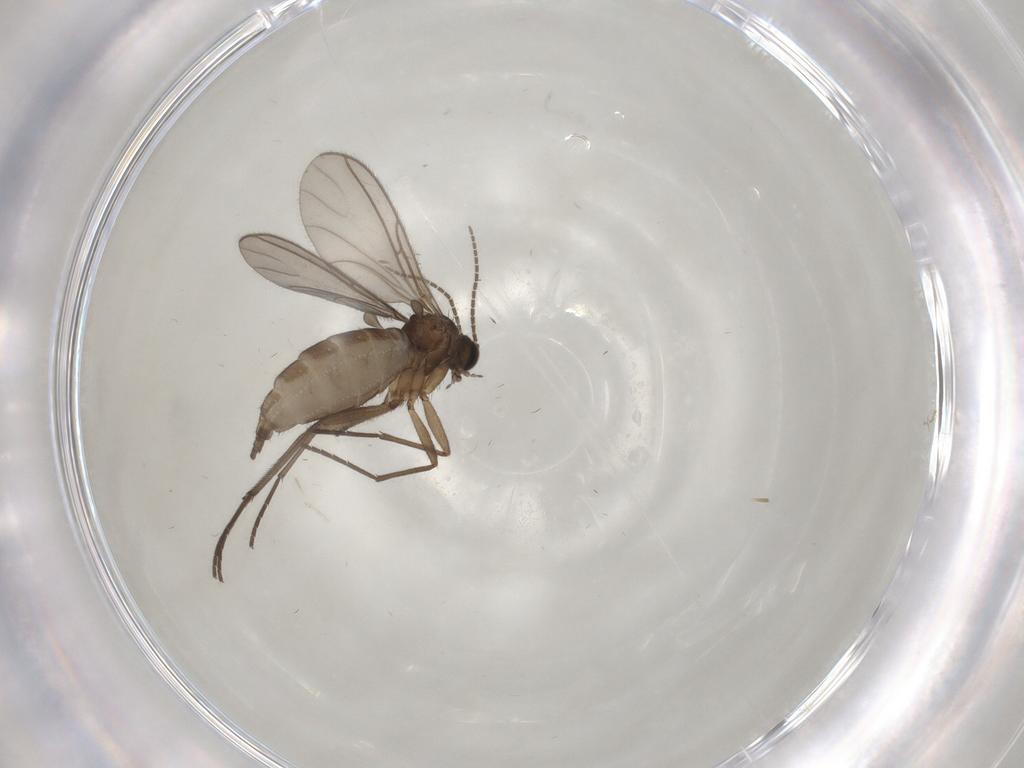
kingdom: Animalia
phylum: Arthropoda
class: Insecta
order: Diptera
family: Sciaridae
